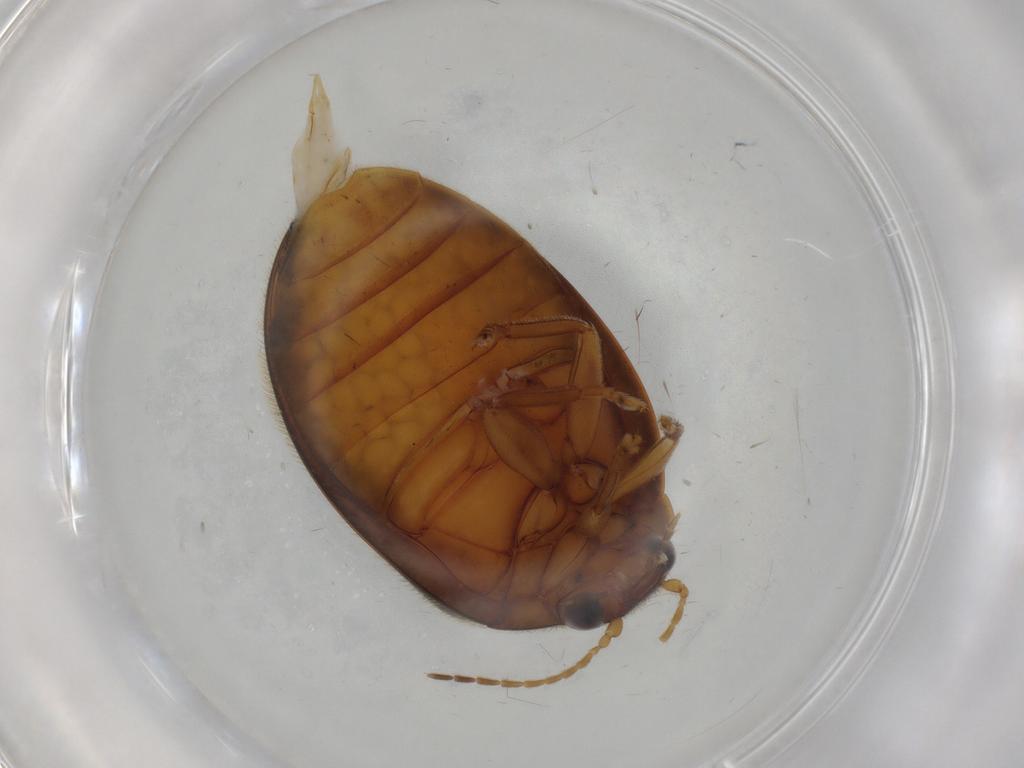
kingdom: Animalia
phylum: Arthropoda
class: Insecta
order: Coleoptera
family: Scirtidae
